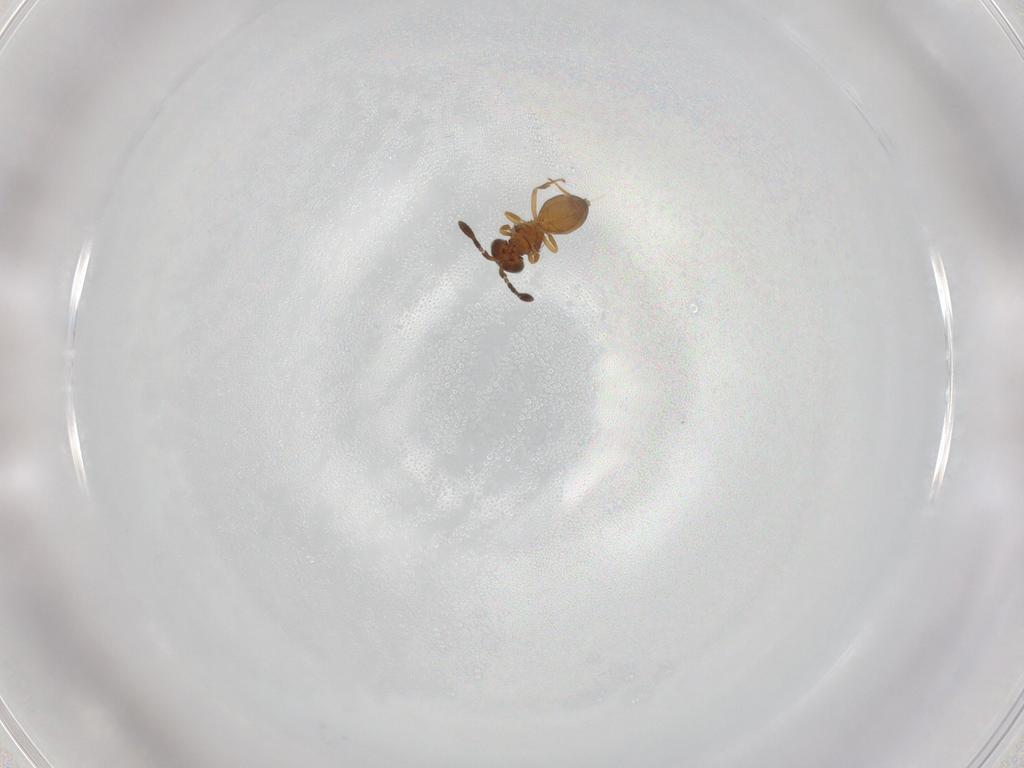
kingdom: Animalia
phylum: Arthropoda
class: Insecta
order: Hymenoptera
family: Scelionidae
